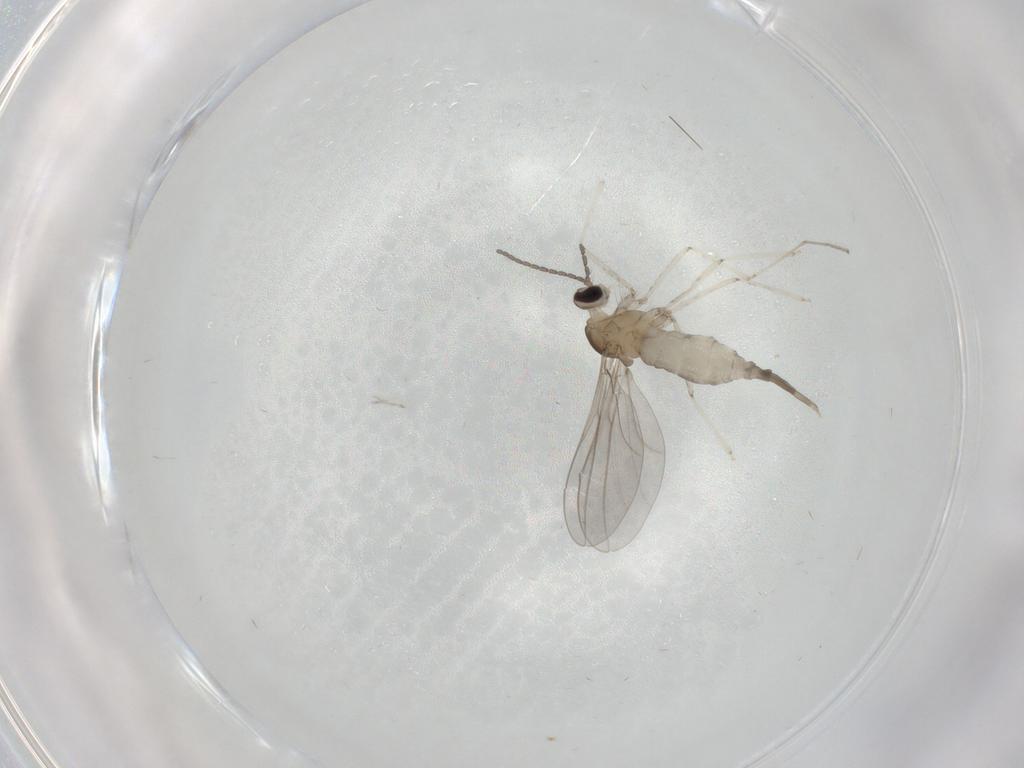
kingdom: Animalia
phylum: Arthropoda
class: Insecta
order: Diptera
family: Cecidomyiidae
